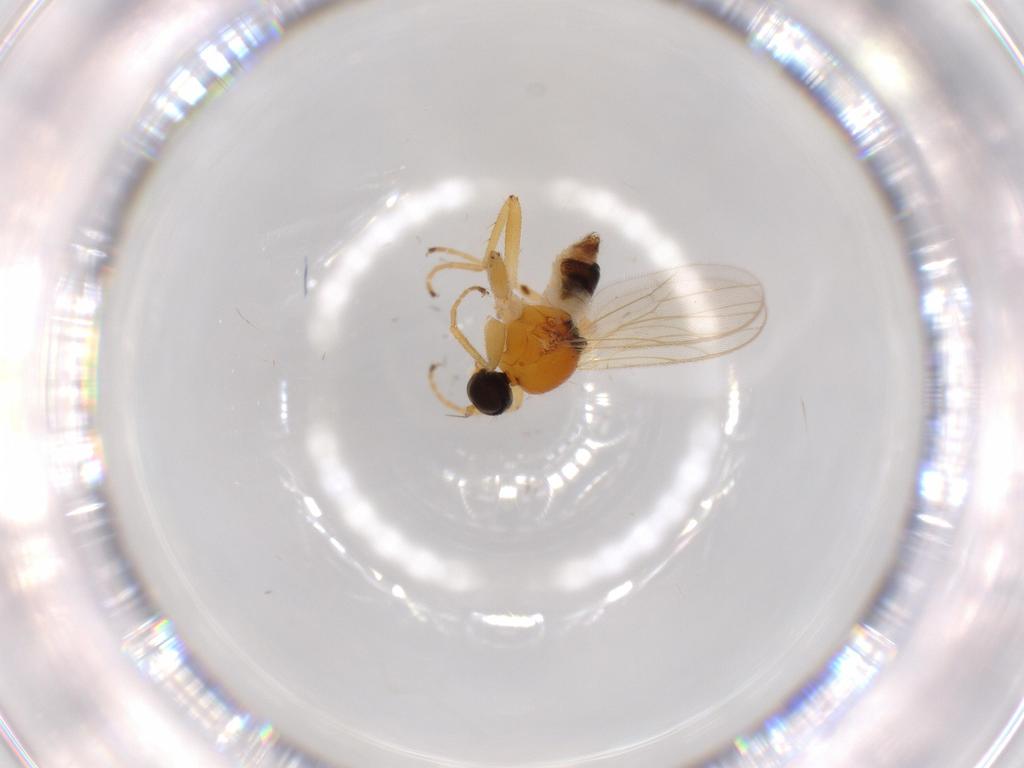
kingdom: Animalia
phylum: Arthropoda
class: Insecta
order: Diptera
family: Hybotidae
